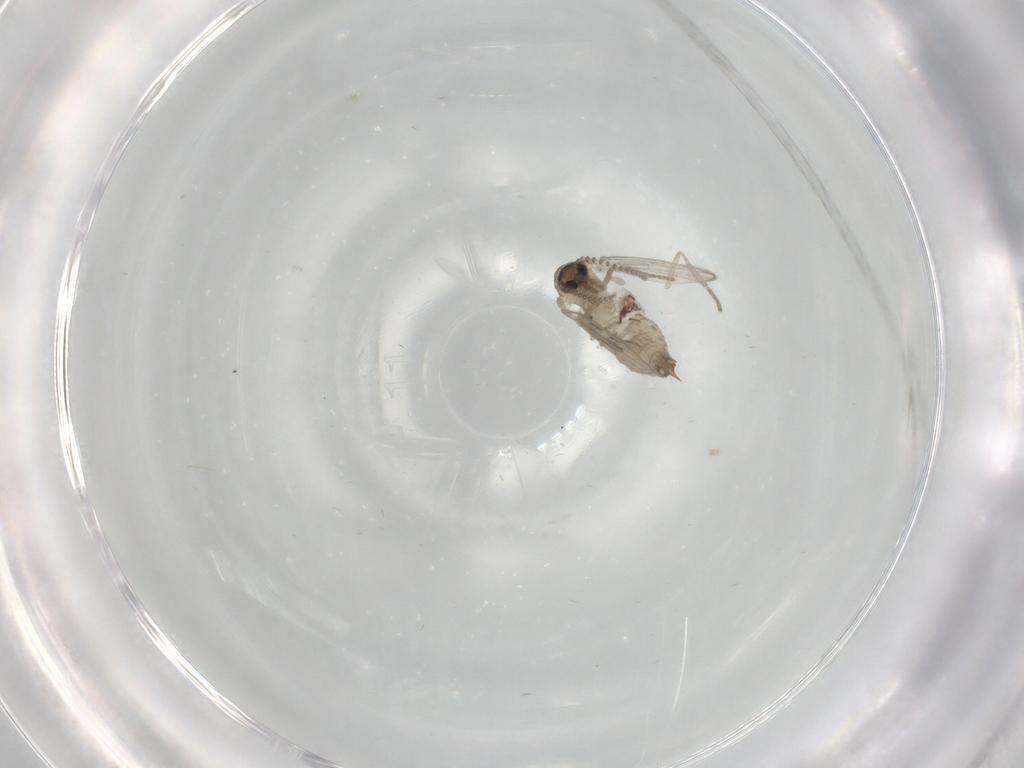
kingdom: Animalia
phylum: Arthropoda
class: Insecta
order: Diptera
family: Psychodidae
